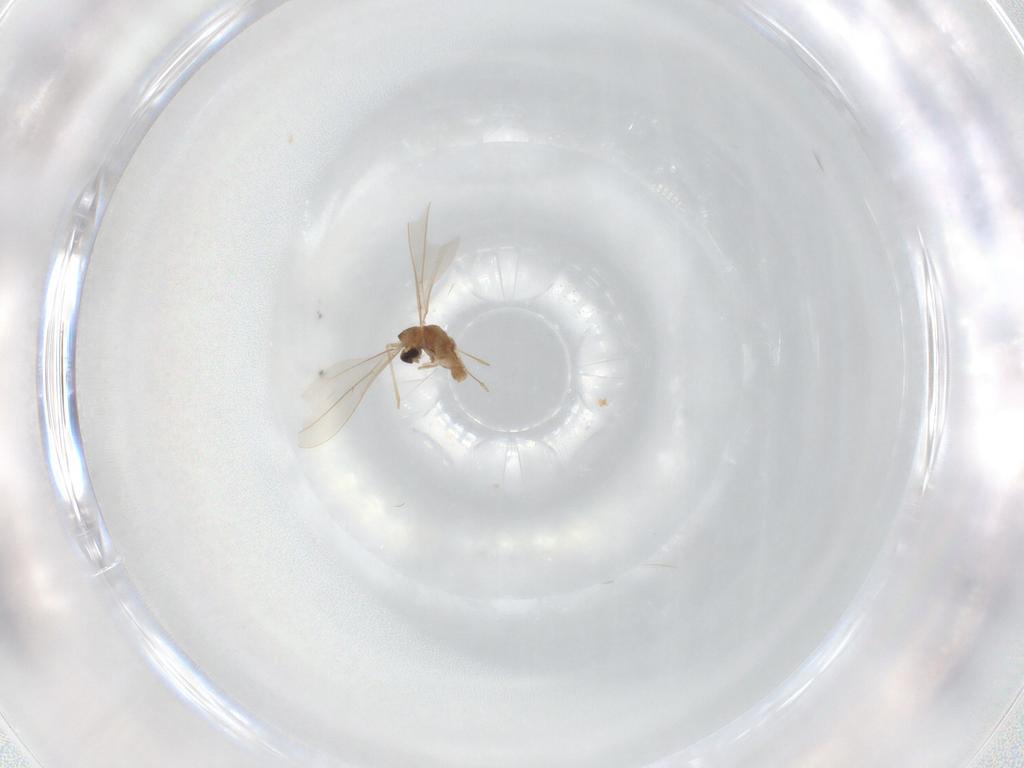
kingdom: Animalia
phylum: Arthropoda
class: Insecta
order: Diptera
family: Cecidomyiidae
